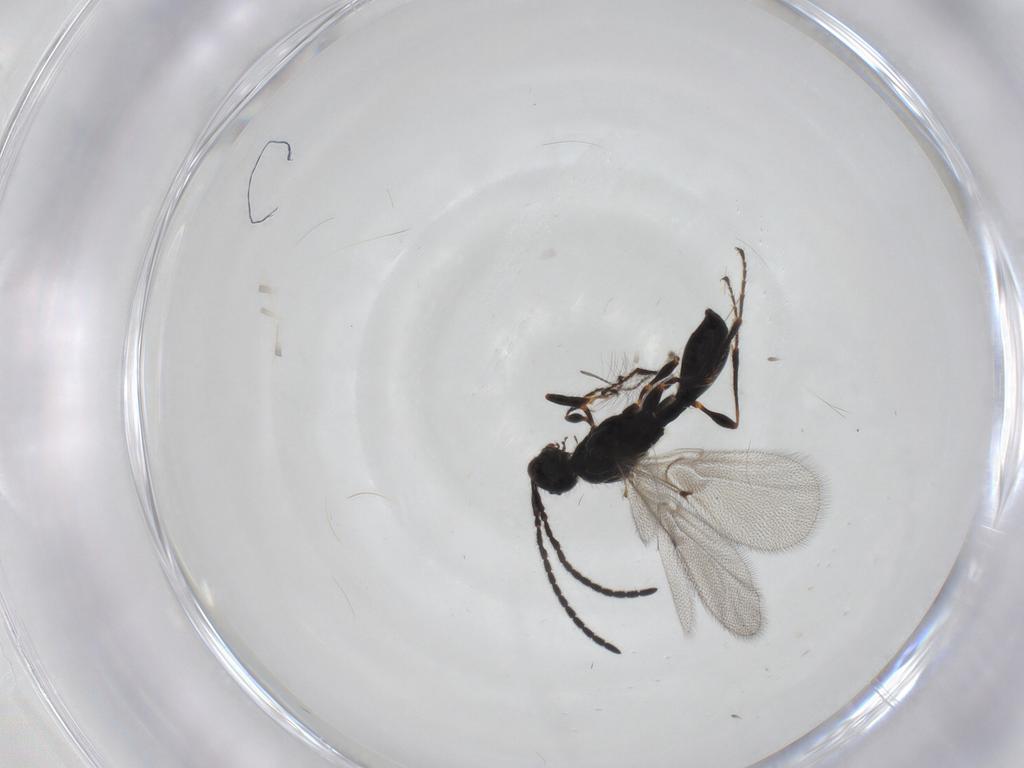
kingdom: Animalia
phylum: Arthropoda
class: Insecta
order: Hymenoptera
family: Diapriidae
